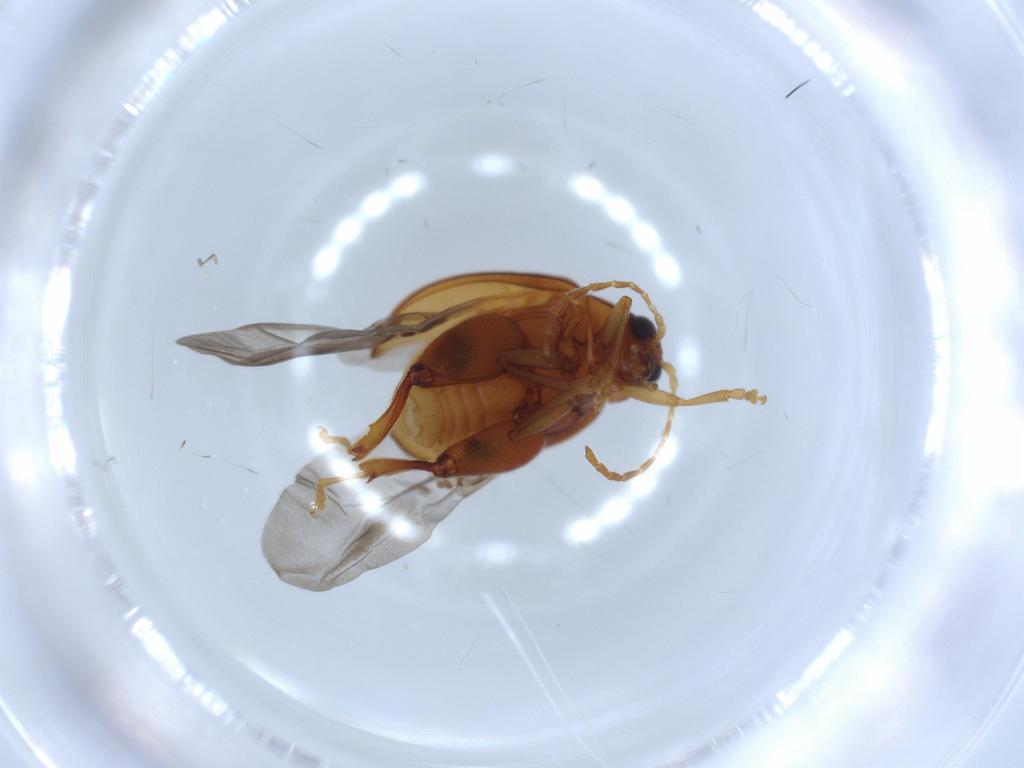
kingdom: Animalia
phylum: Arthropoda
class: Insecta
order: Coleoptera
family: Chrysomelidae
